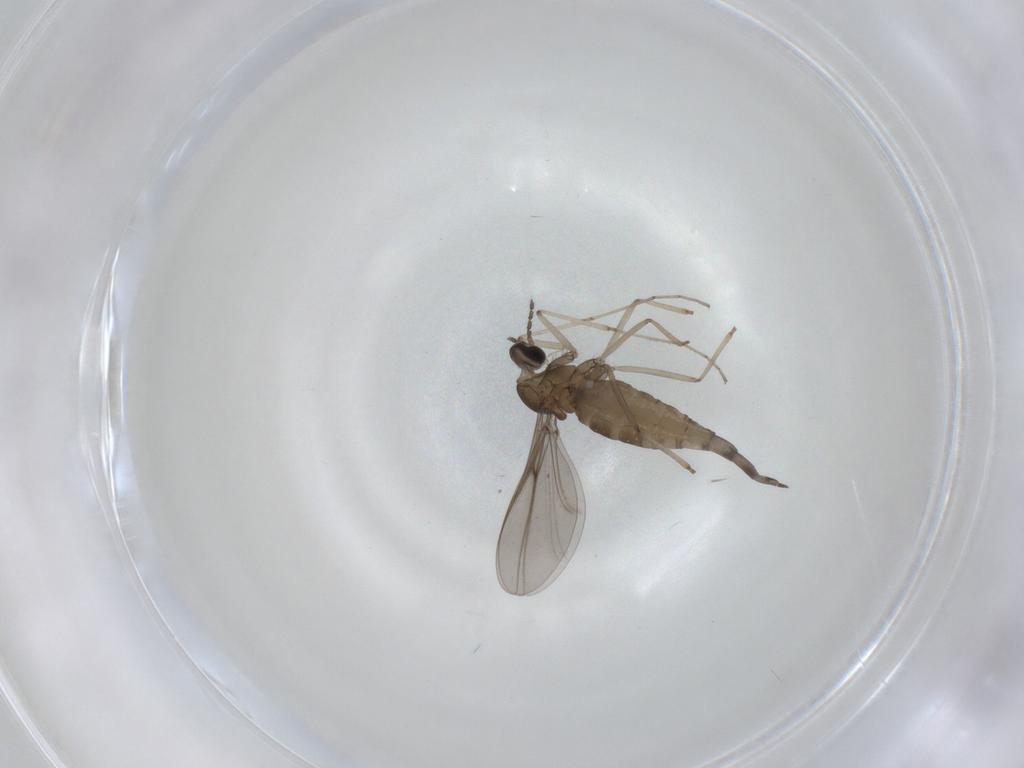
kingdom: Animalia
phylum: Arthropoda
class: Insecta
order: Diptera
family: Cecidomyiidae
